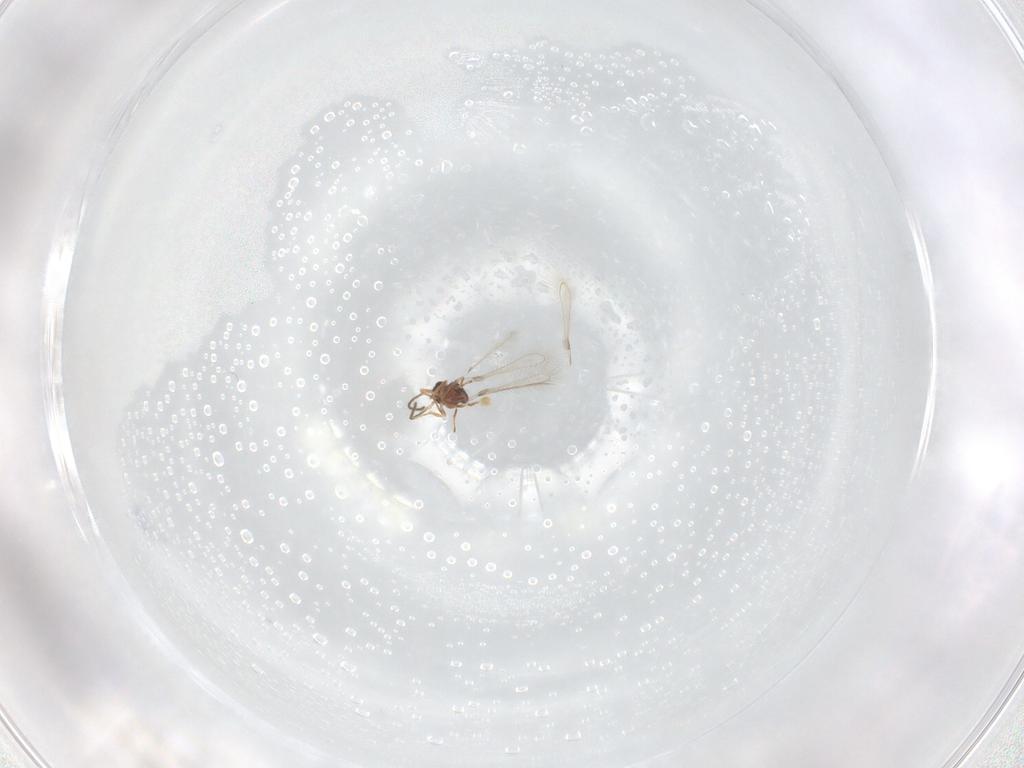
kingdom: Animalia
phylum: Arthropoda
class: Insecta
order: Hymenoptera
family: Mymaridae
